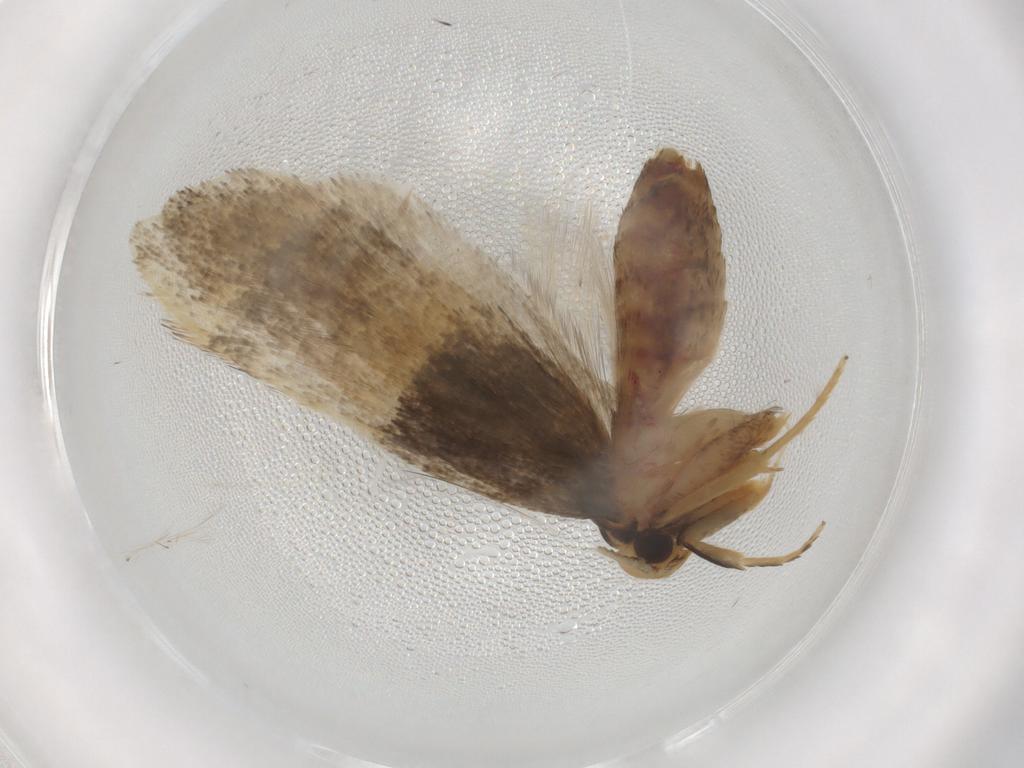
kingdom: Animalia
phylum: Arthropoda
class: Insecta
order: Lepidoptera
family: Lecithoceridae
